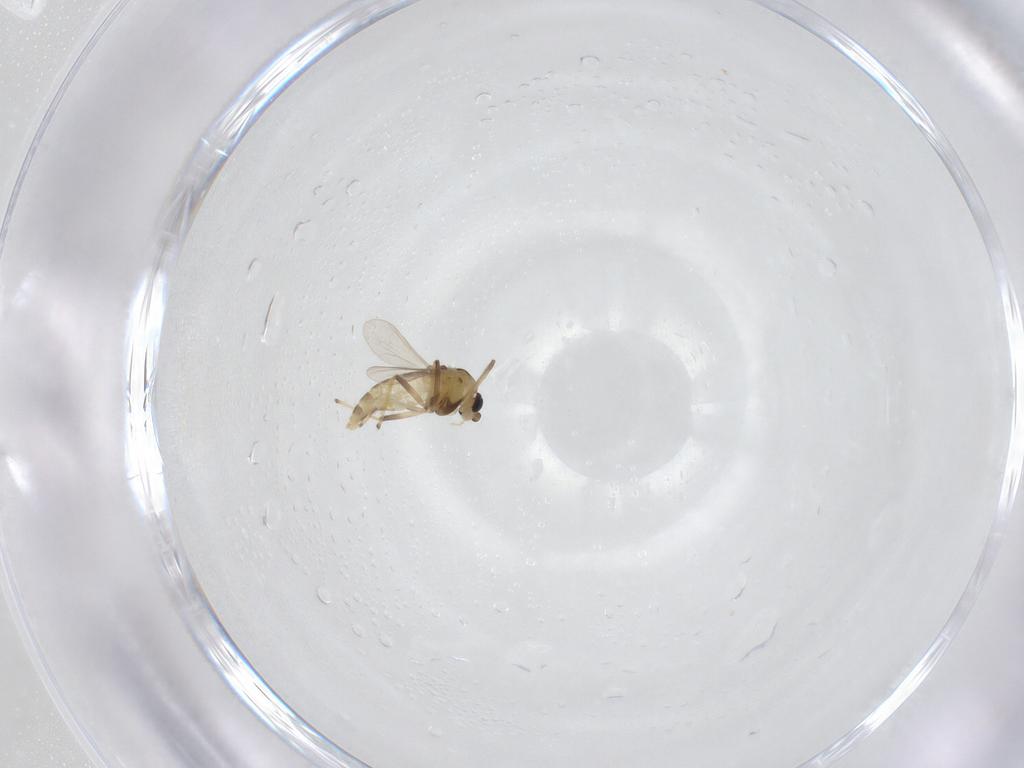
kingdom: Animalia
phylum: Arthropoda
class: Insecta
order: Diptera
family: Chironomidae
